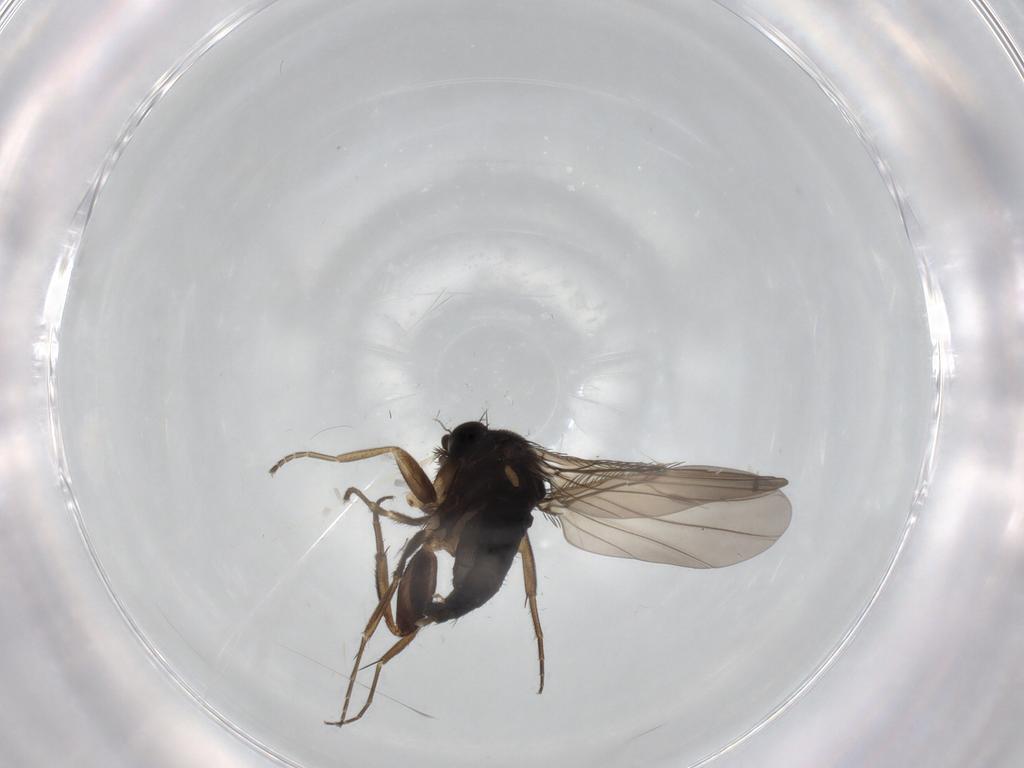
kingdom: Animalia
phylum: Arthropoda
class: Insecta
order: Diptera
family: Phoridae
